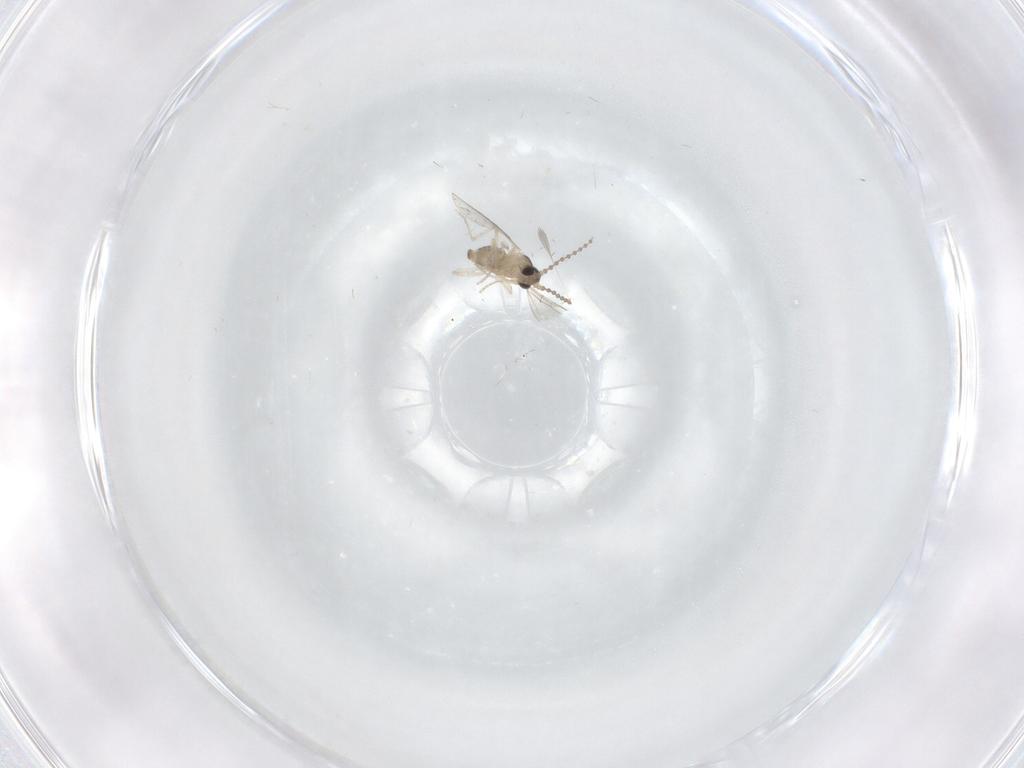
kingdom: Animalia
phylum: Arthropoda
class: Insecta
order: Diptera
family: Cecidomyiidae
